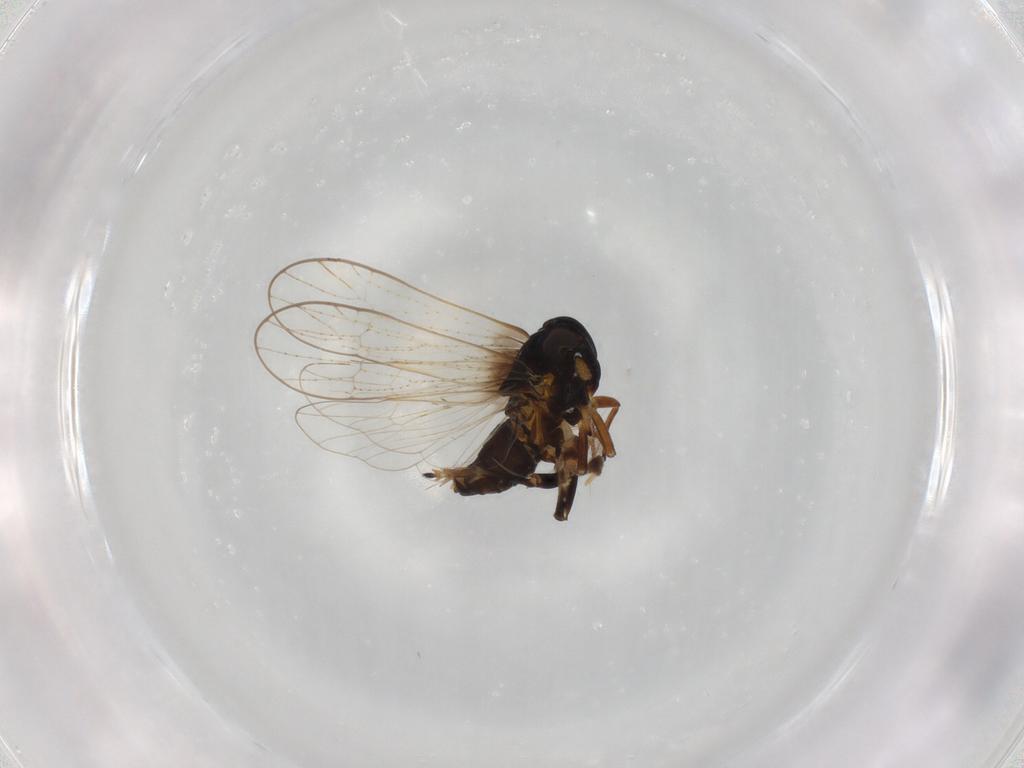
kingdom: Animalia
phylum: Arthropoda
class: Insecta
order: Hemiptera
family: Delphacidae
